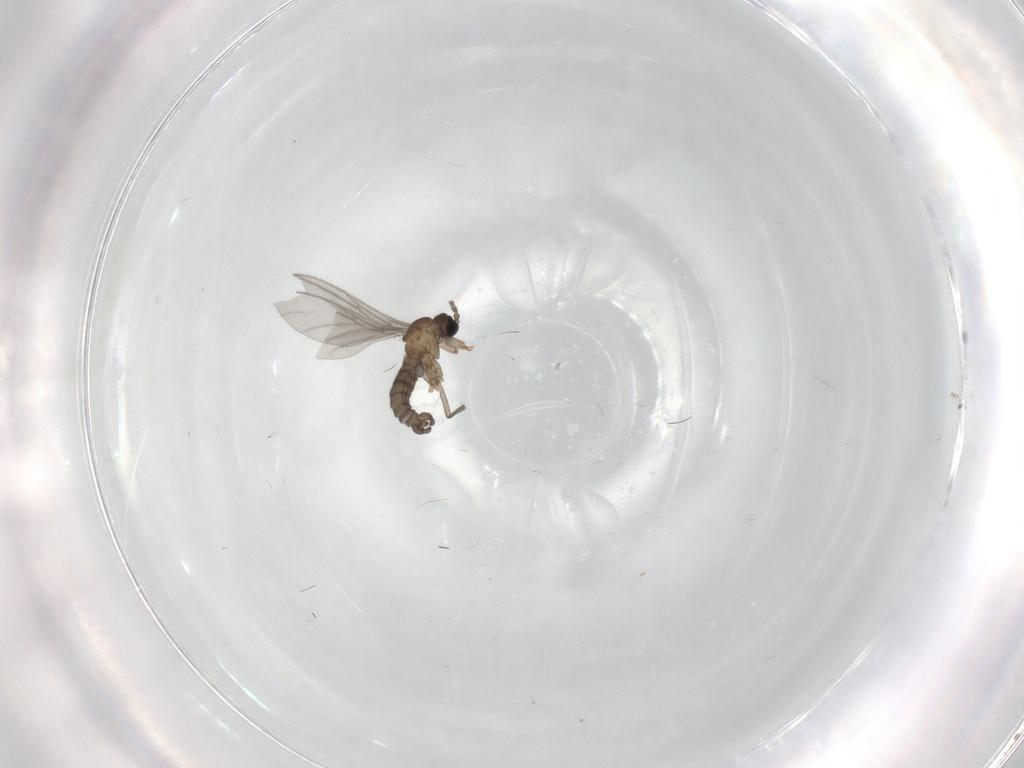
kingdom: Animalia
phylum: Arthropoda
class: Insecta
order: Diptera
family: Sciaridae
